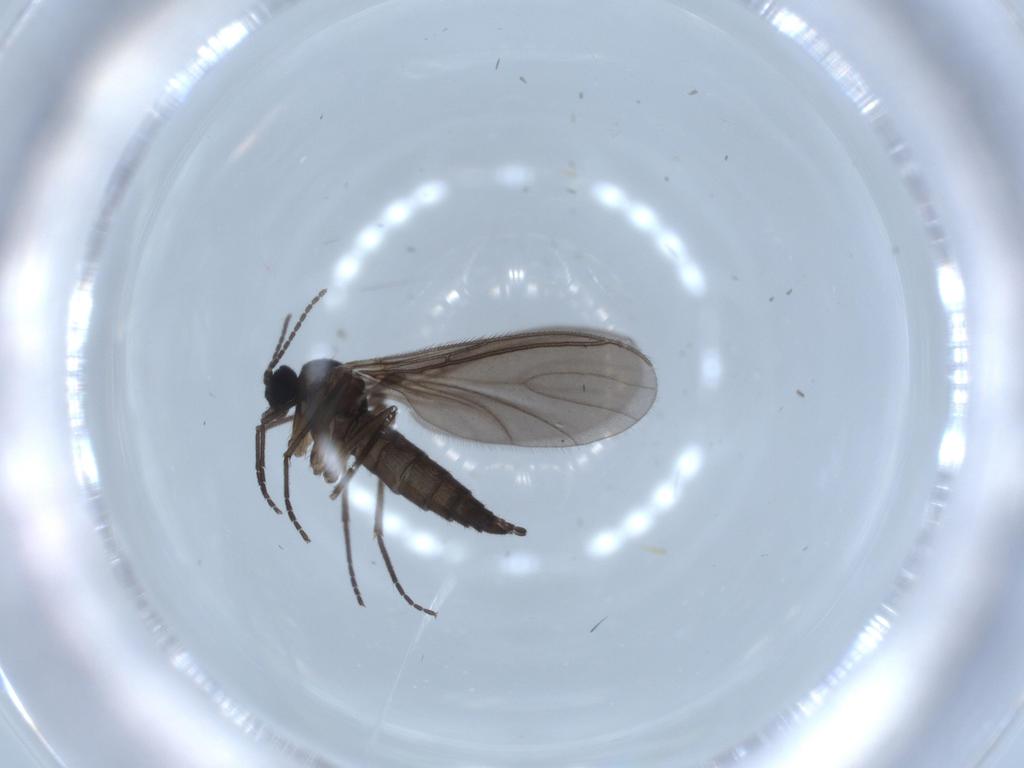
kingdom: Animalia
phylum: Arthropoda
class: Insecta
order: Diptera
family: Sciaridae
